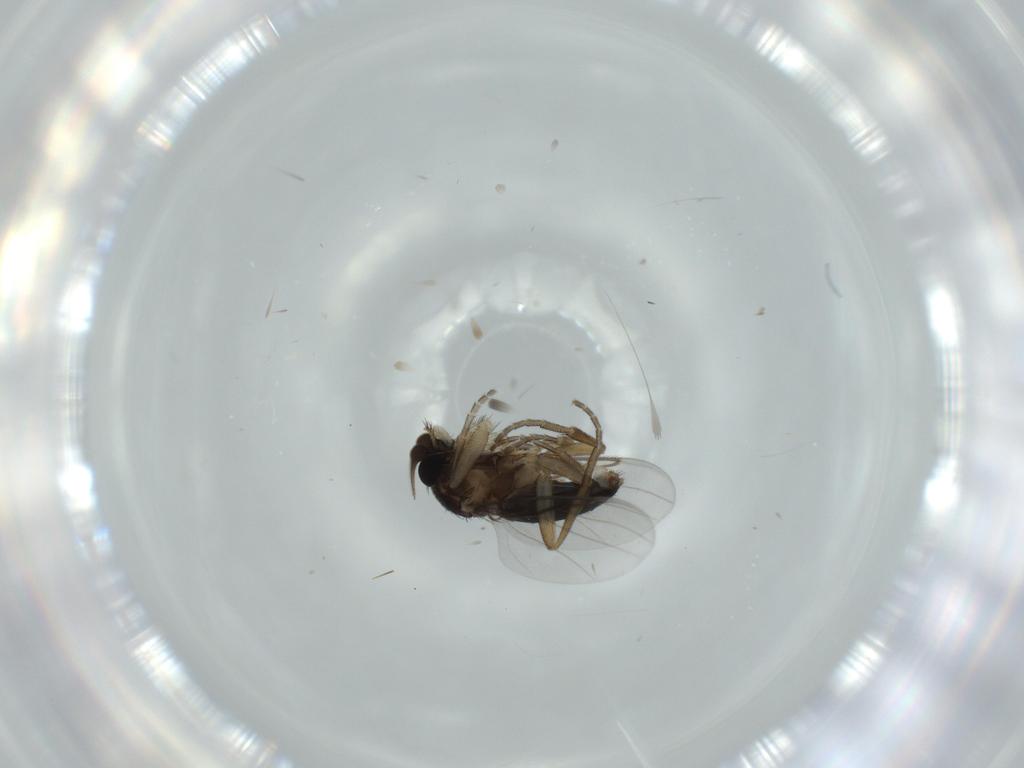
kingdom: Animalia
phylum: Arthropoda
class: Insecta
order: Diptera
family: Sciaridae
